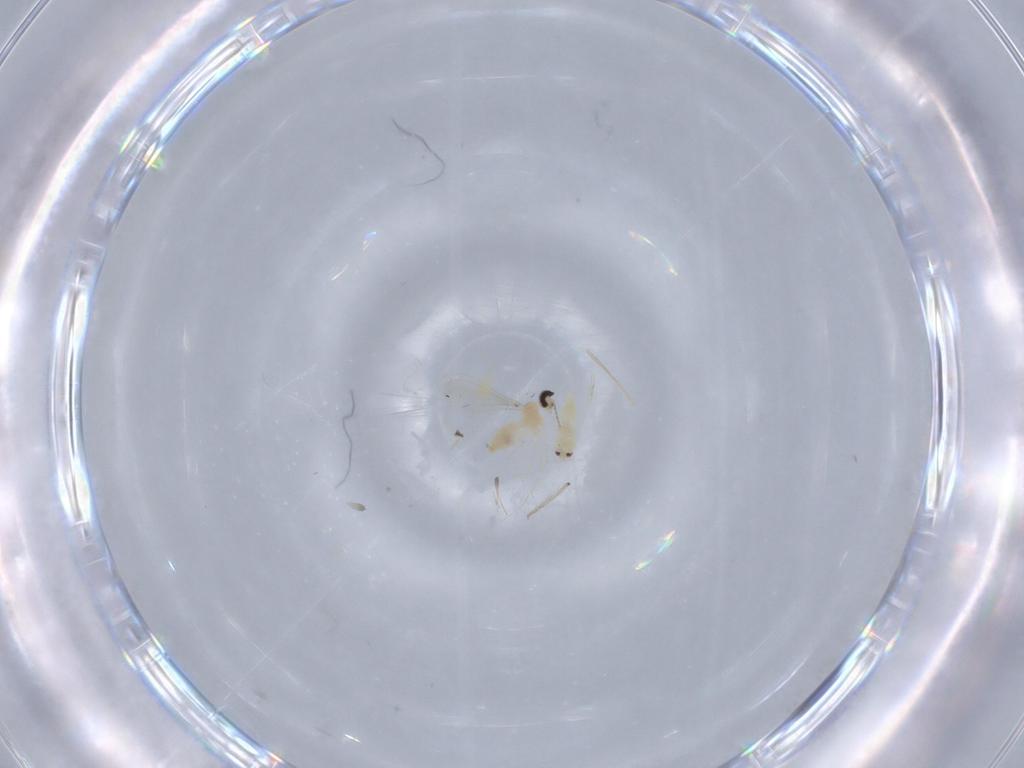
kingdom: Animalia
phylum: Arthropoda
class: Insecta
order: Diptera
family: Cecidomyiidae
